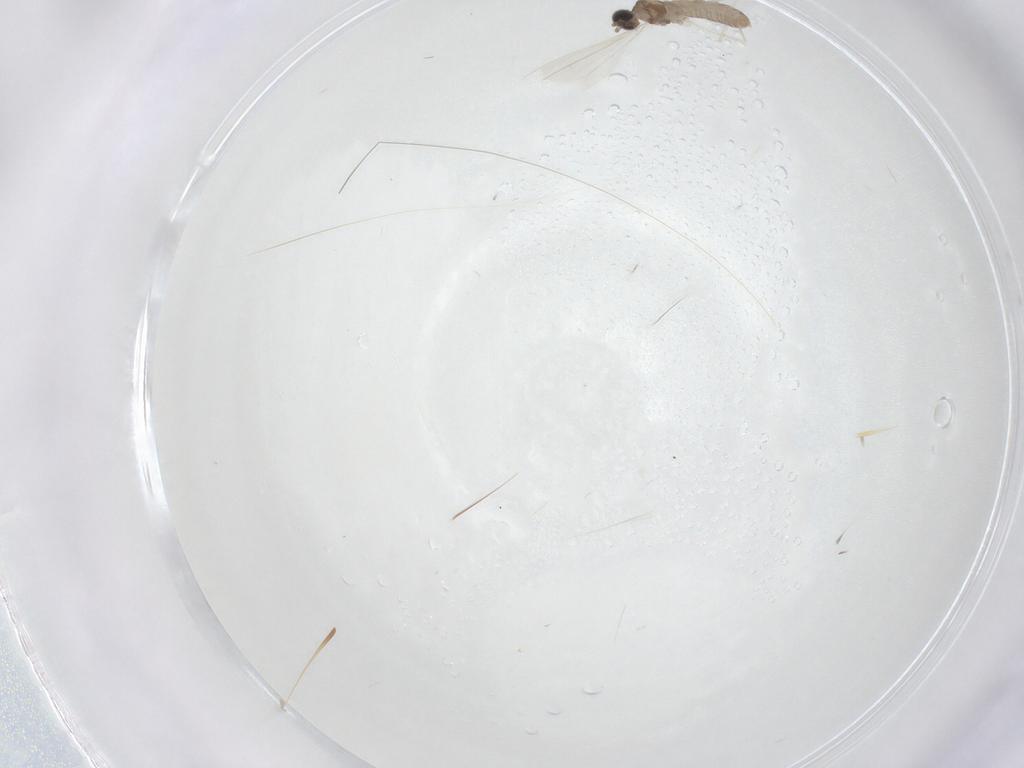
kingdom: Animalia
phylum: Arthropoda
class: Insecta
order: Diptera
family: Cecidomyiidae
